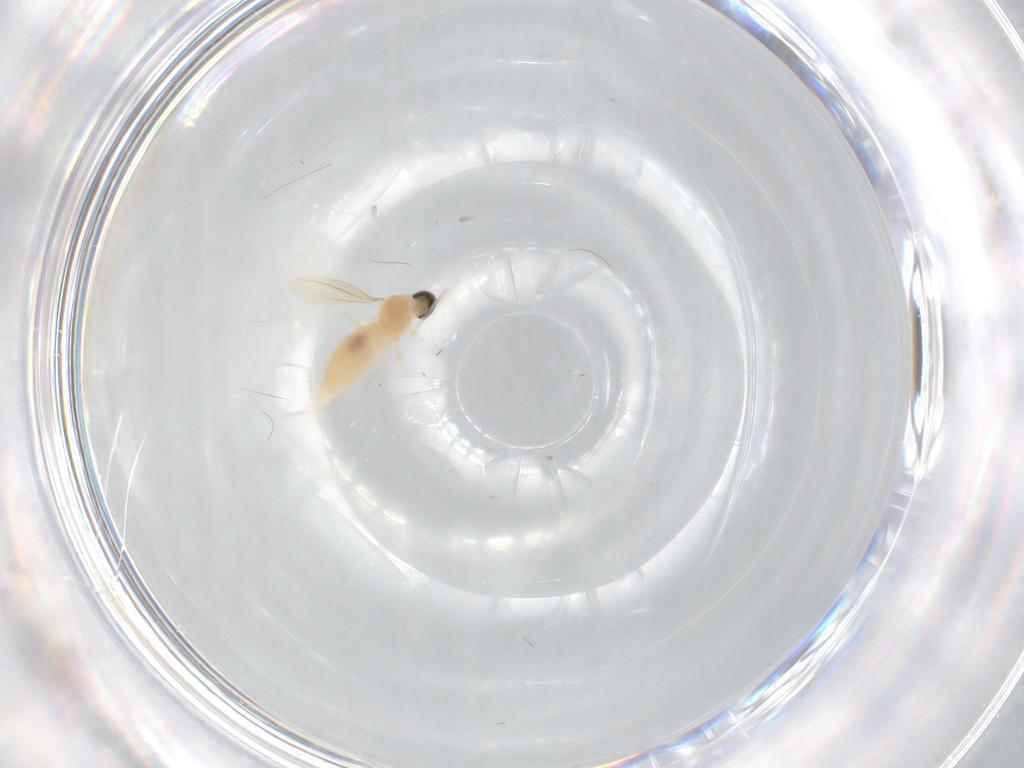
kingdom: Animalia
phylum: Arthropoda
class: Insecta
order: Diptera
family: Cecidomyiidae
